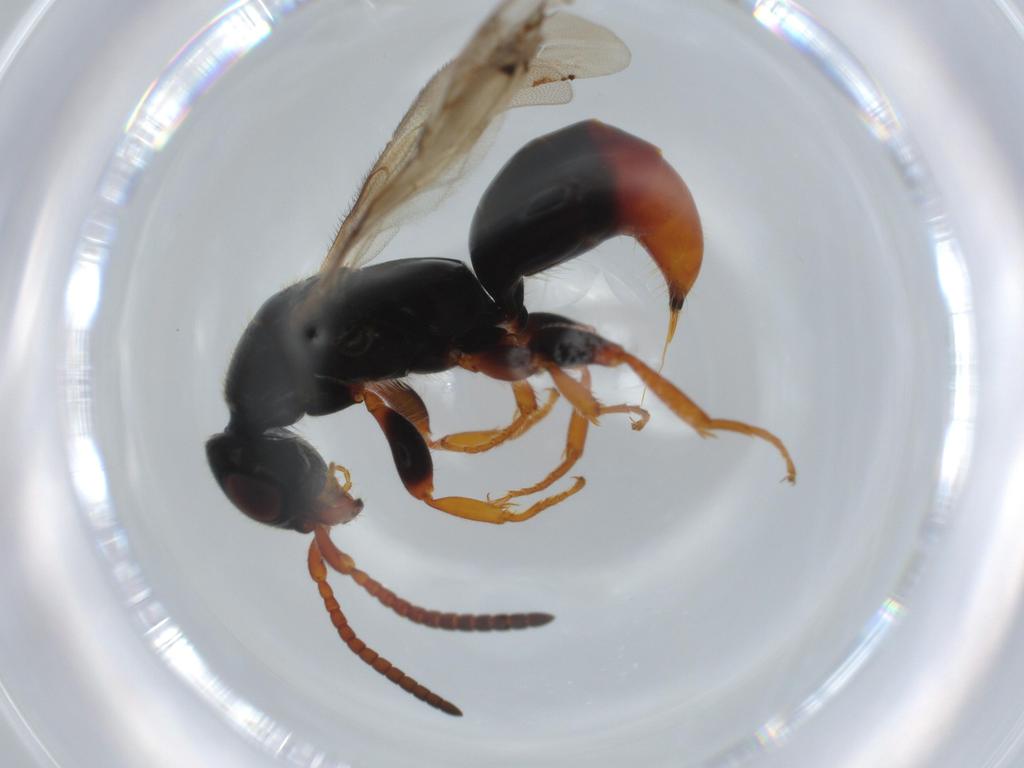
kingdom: Animalia
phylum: Arthropoda
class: Insecta
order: Hymenoptera
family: Bethylidae
